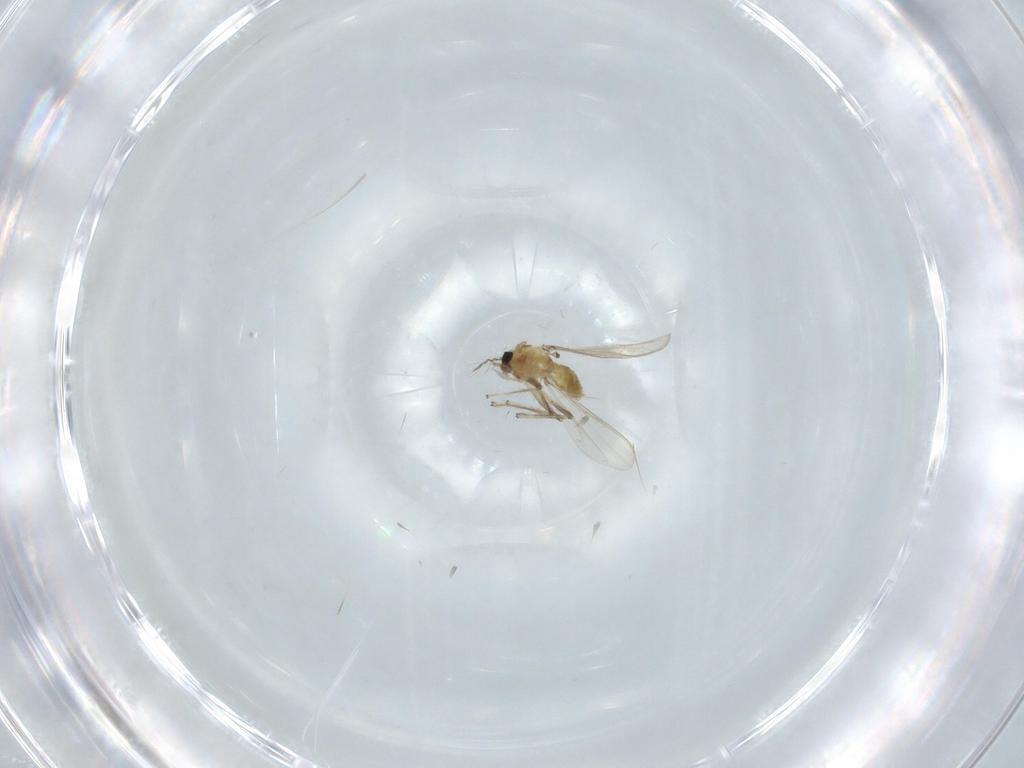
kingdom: Animalia
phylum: Arthropoda
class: Insecta
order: Diptera
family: Chironomidae
